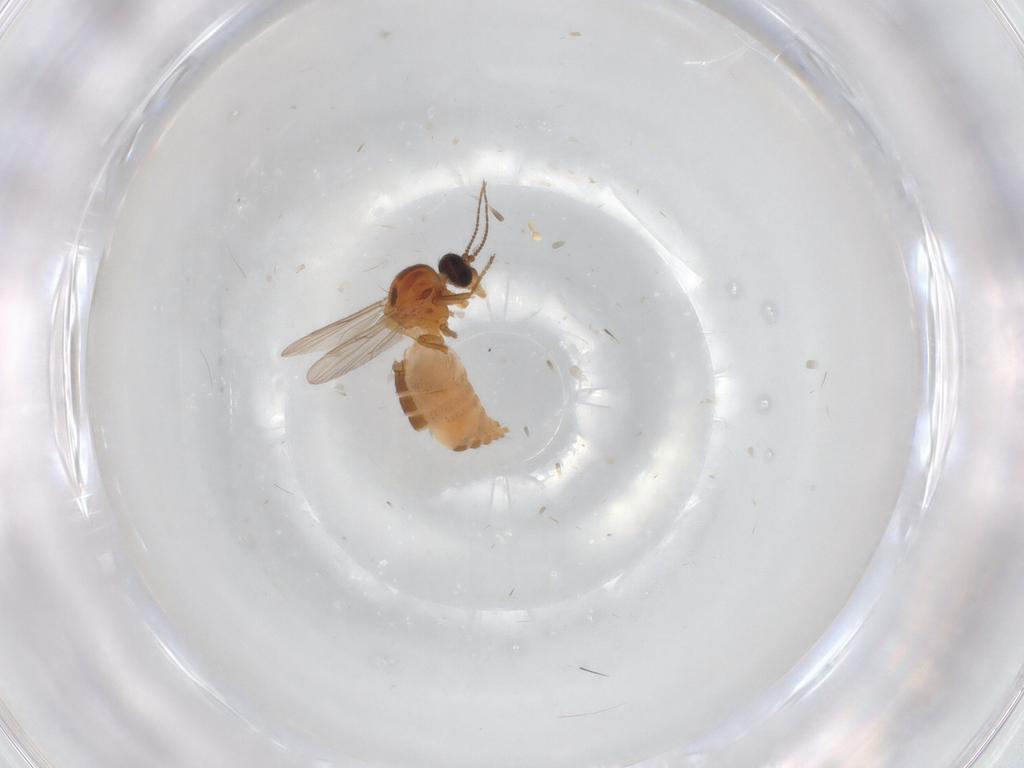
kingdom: Animalia
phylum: Arthropoda
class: Insecta
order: Diptera
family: Ceratopogonidae
